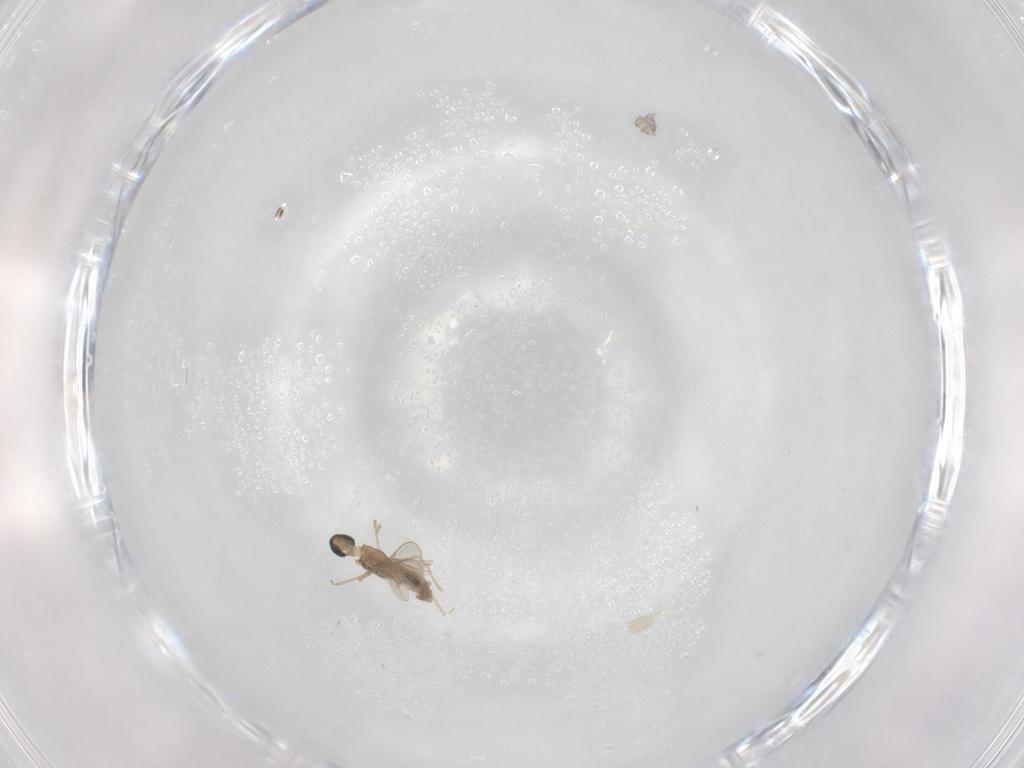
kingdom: Animalia
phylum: Arthropoda
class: Insecta
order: Diptera
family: Cecidomyiidae
